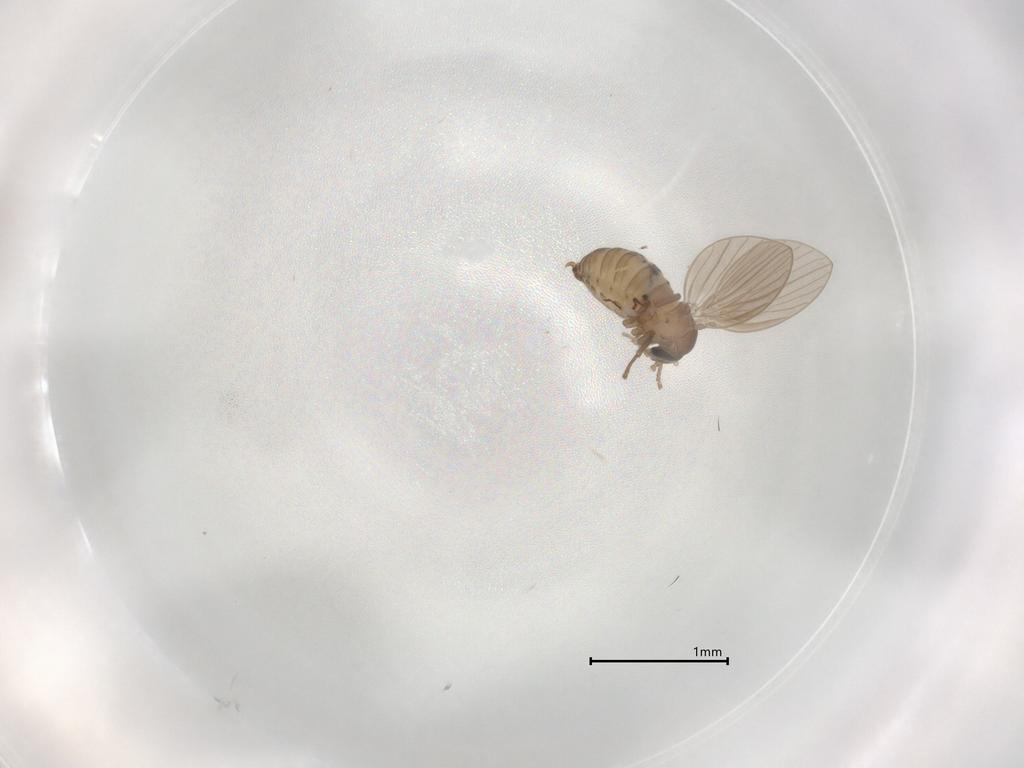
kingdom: Animalia
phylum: Arthropoda
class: Insecta
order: Diptera
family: Psychodidae
